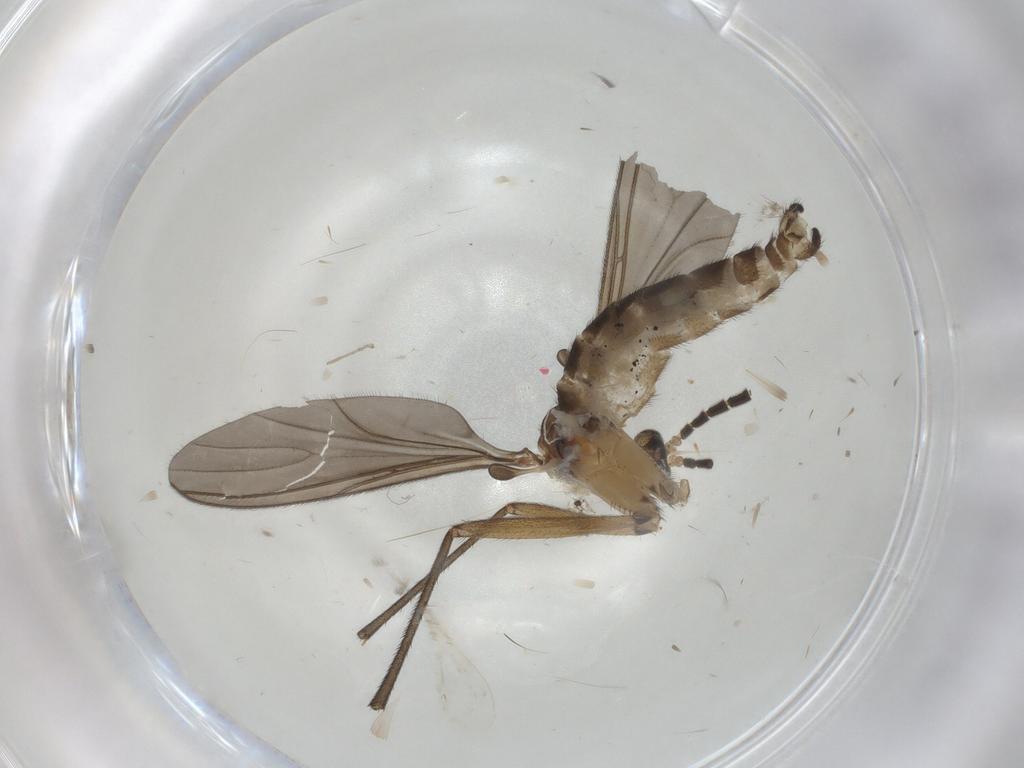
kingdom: Animalia
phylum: Arthropoda
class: Insecta
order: Diptera
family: Sciaridae
